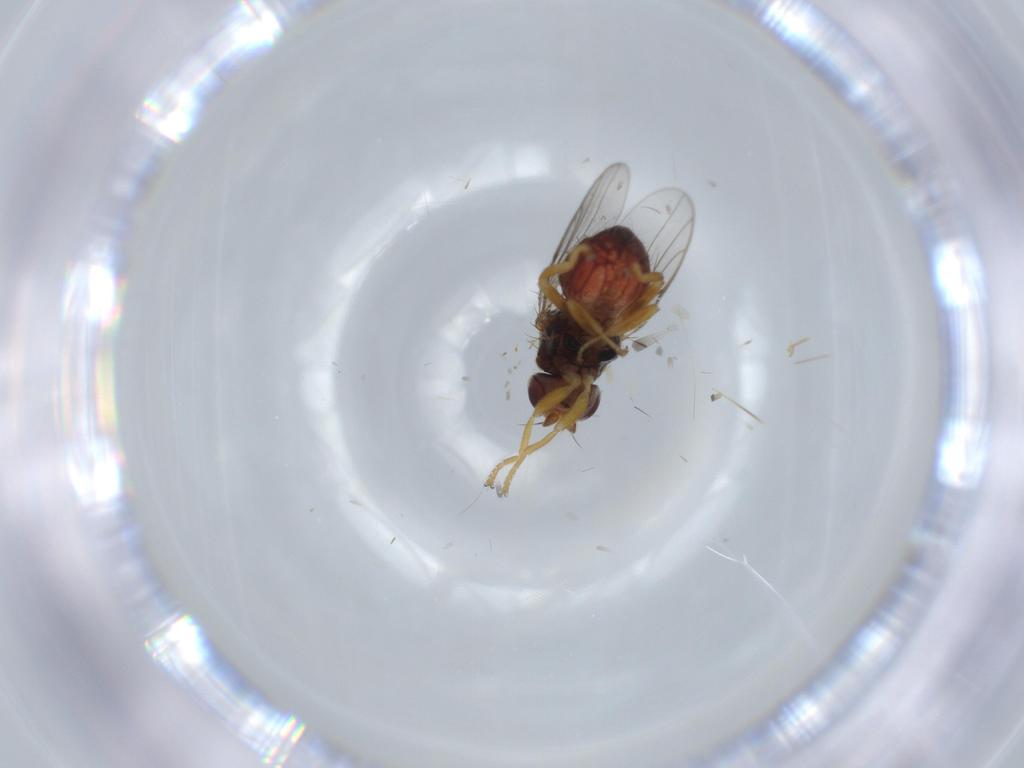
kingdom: Animalia
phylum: Arthropoda
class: Insecta
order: Diptera
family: Chloropidae
